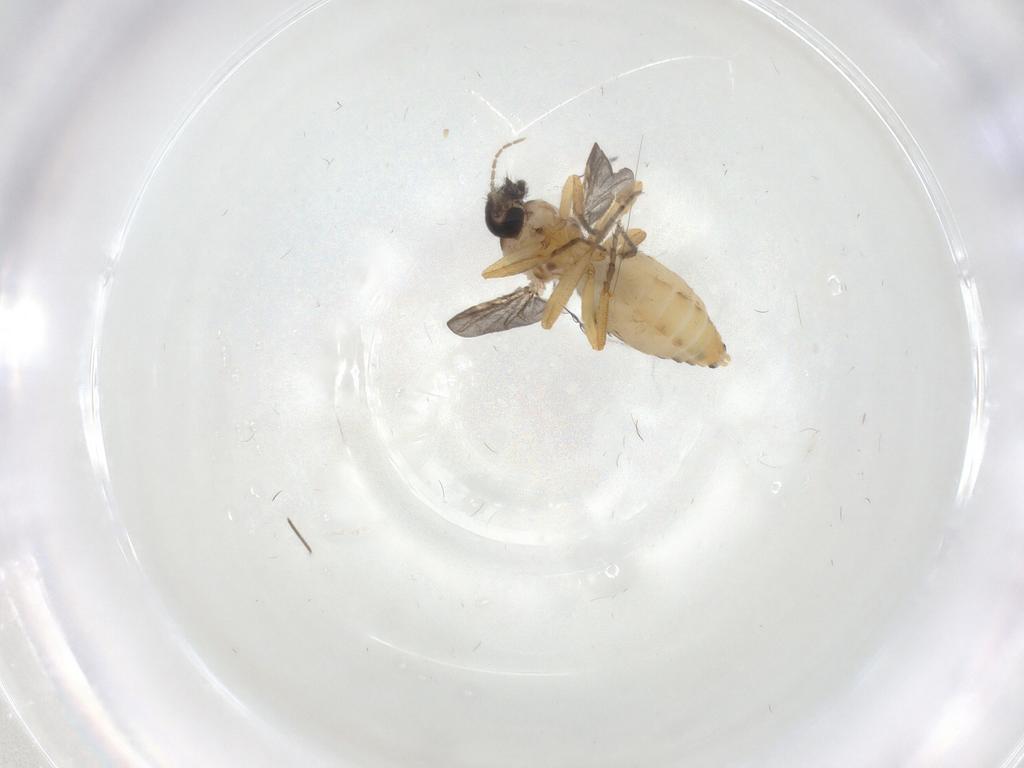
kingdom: Animalia
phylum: Arthropoda
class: Insecta
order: Diptera
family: Ceratopogonidae
